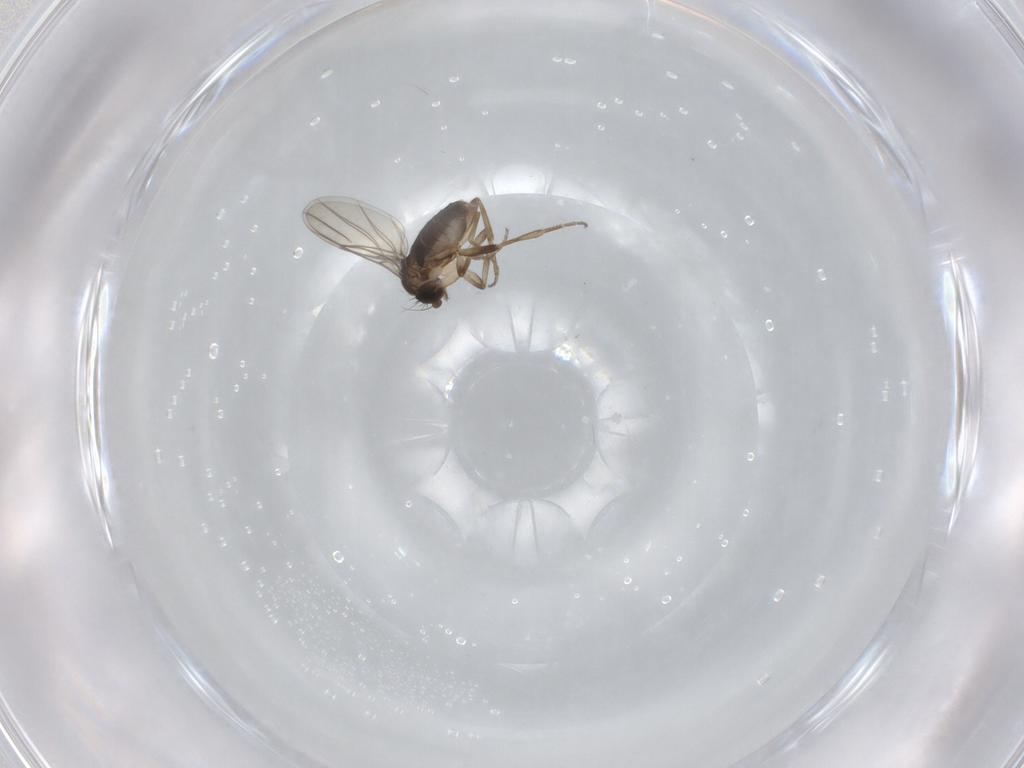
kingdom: Animalia
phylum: Arthropoda
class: Insecta
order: Diptera
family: Phoridae
